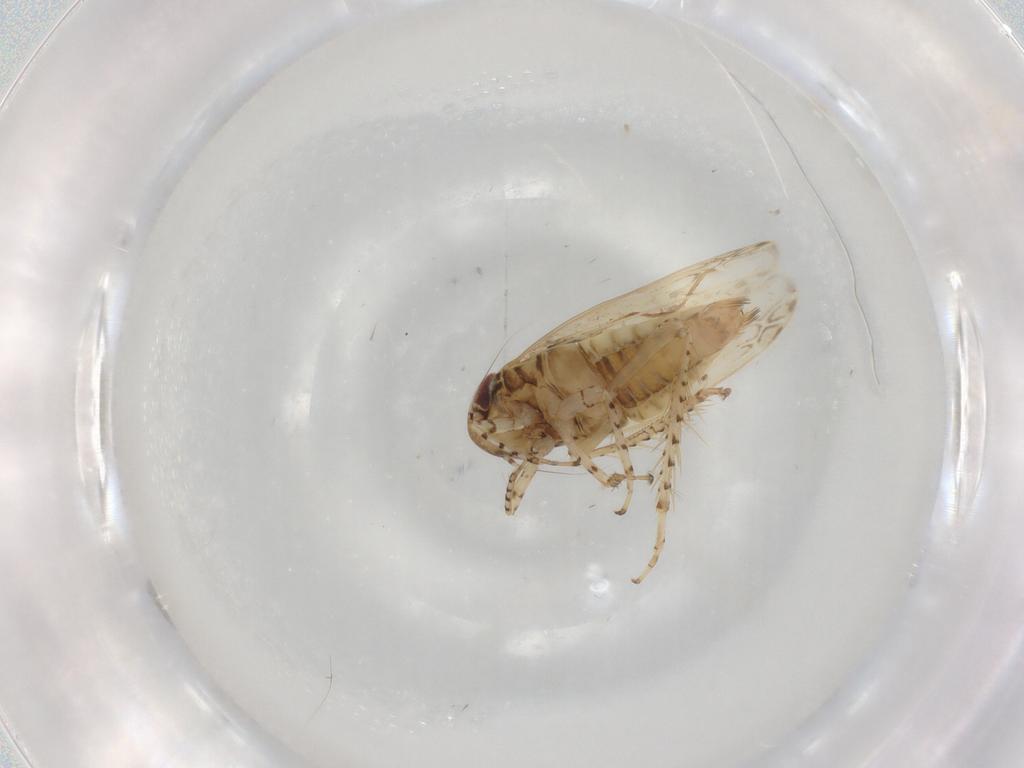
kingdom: Animalia
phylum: Arthropoda
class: Insecta
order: Hemiptera
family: Cicadellidae
